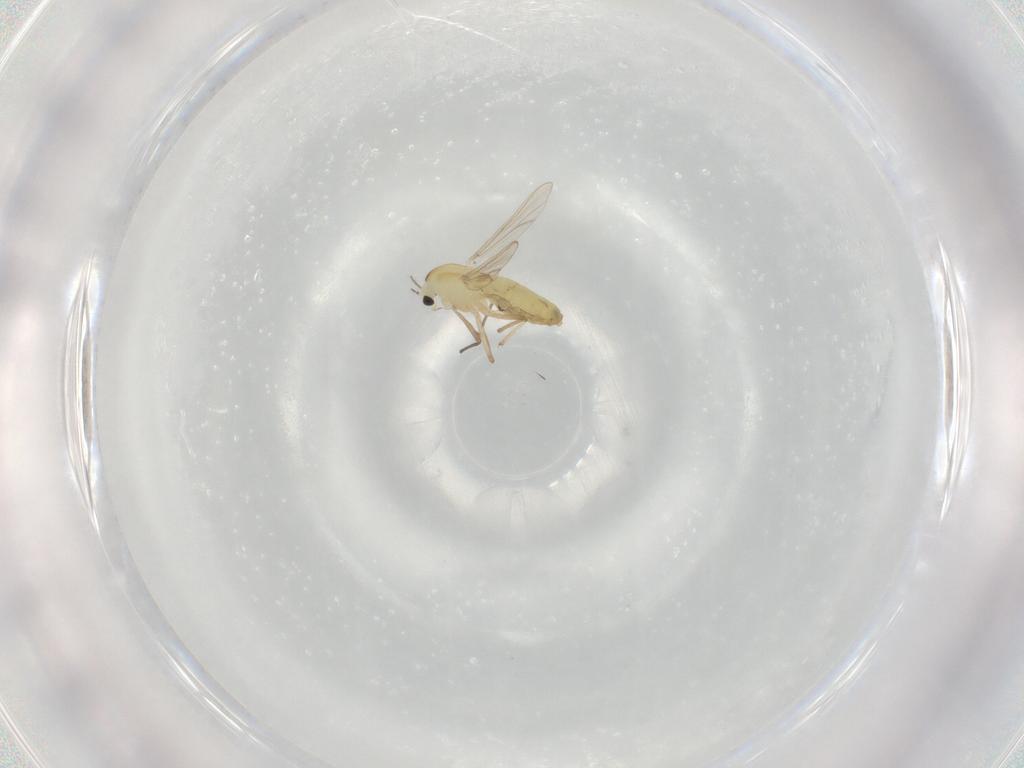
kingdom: Animalia
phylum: Arthropoda
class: Insecta
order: Diptera
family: Chironomidae
